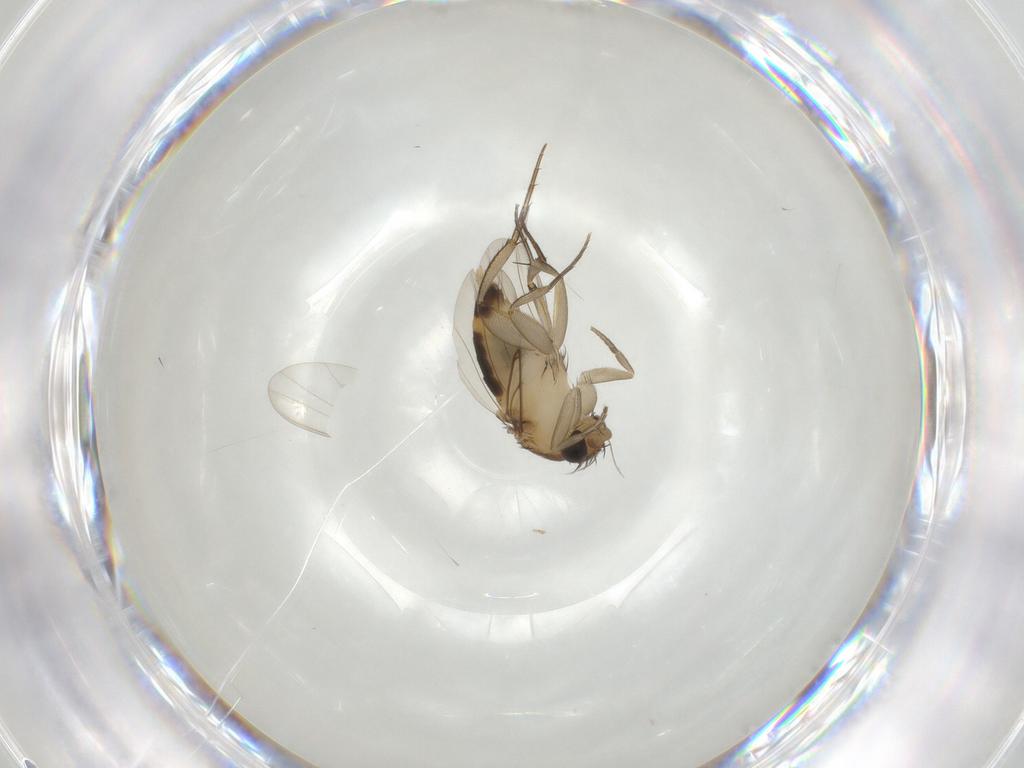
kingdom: Animalia
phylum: Arthropoda
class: Insecta
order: Diptera
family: Phoridae
